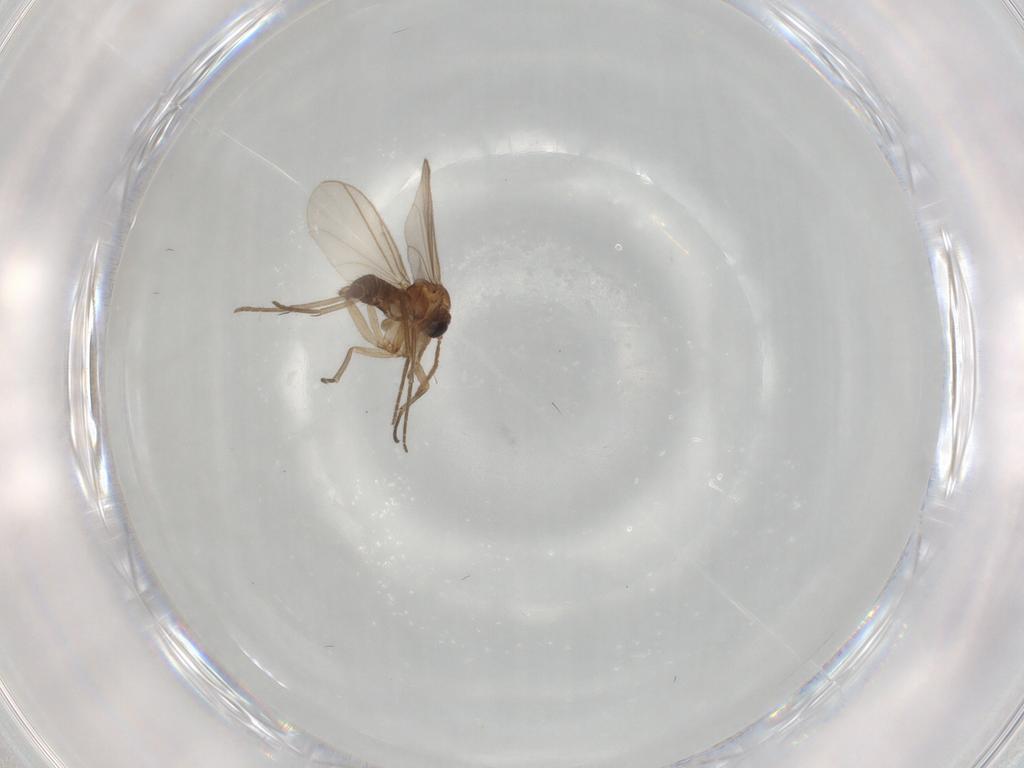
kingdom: Animalia
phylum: Arthropoda
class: Insecta
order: Diptera
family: Sciaridae
